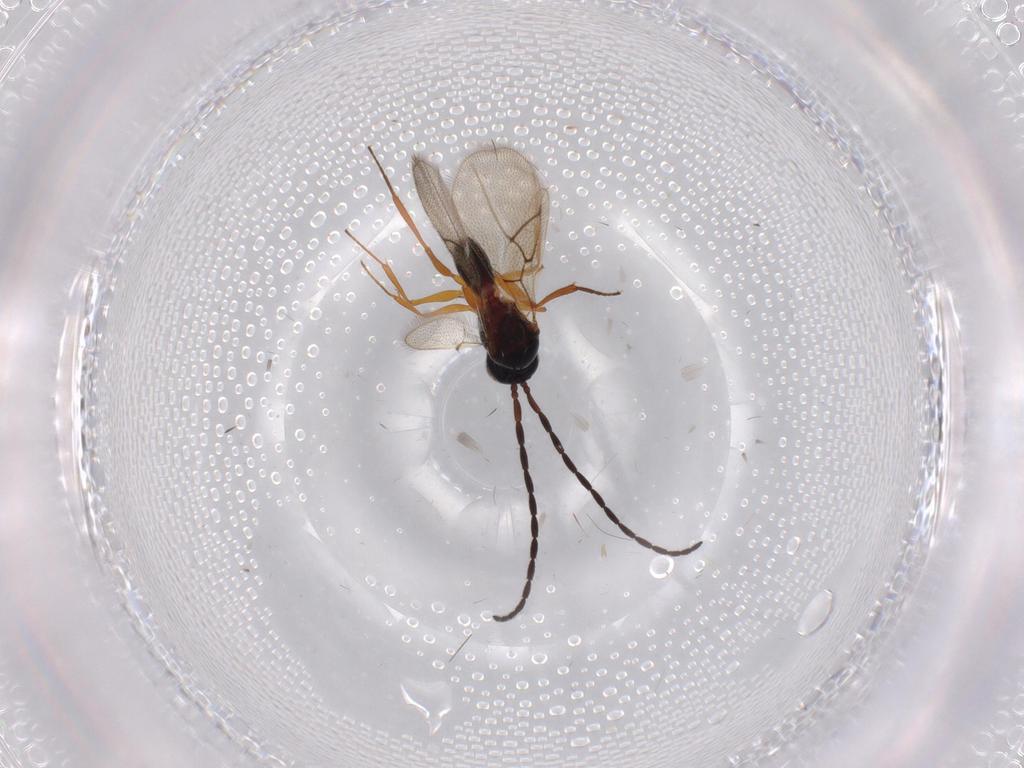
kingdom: Animalia
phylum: Arthropoda
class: Insecta
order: Hymenoptera
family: Figitidae
